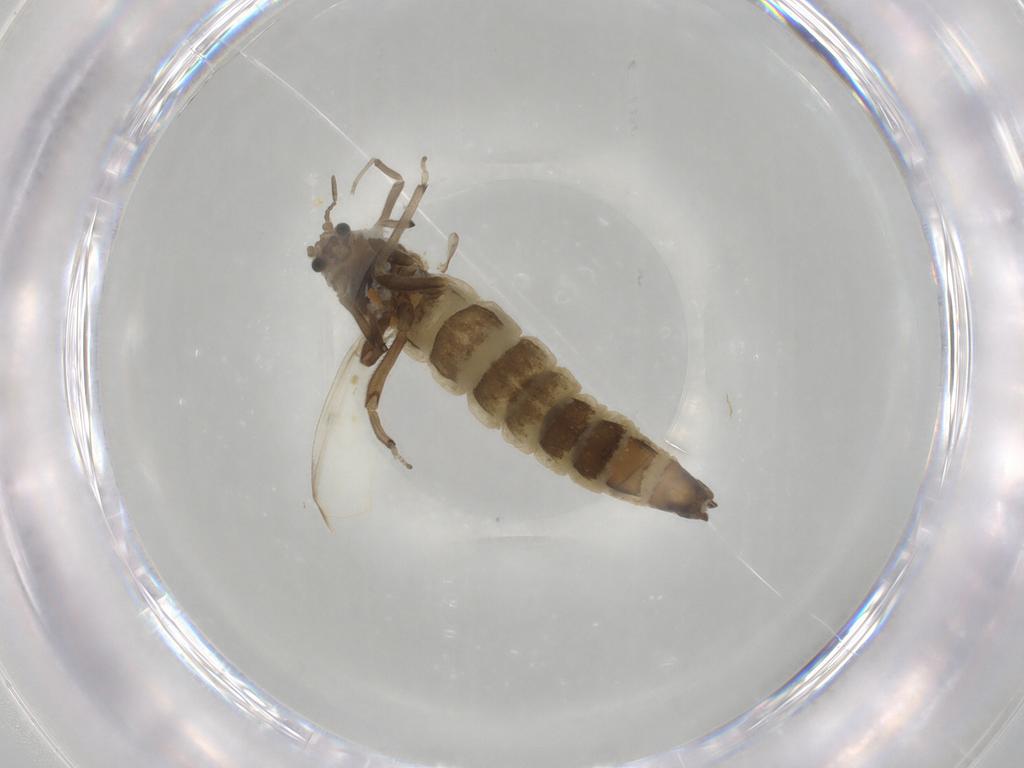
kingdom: Animalia
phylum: Arthropoda
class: Insecta
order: Diptera
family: Chironomidae
